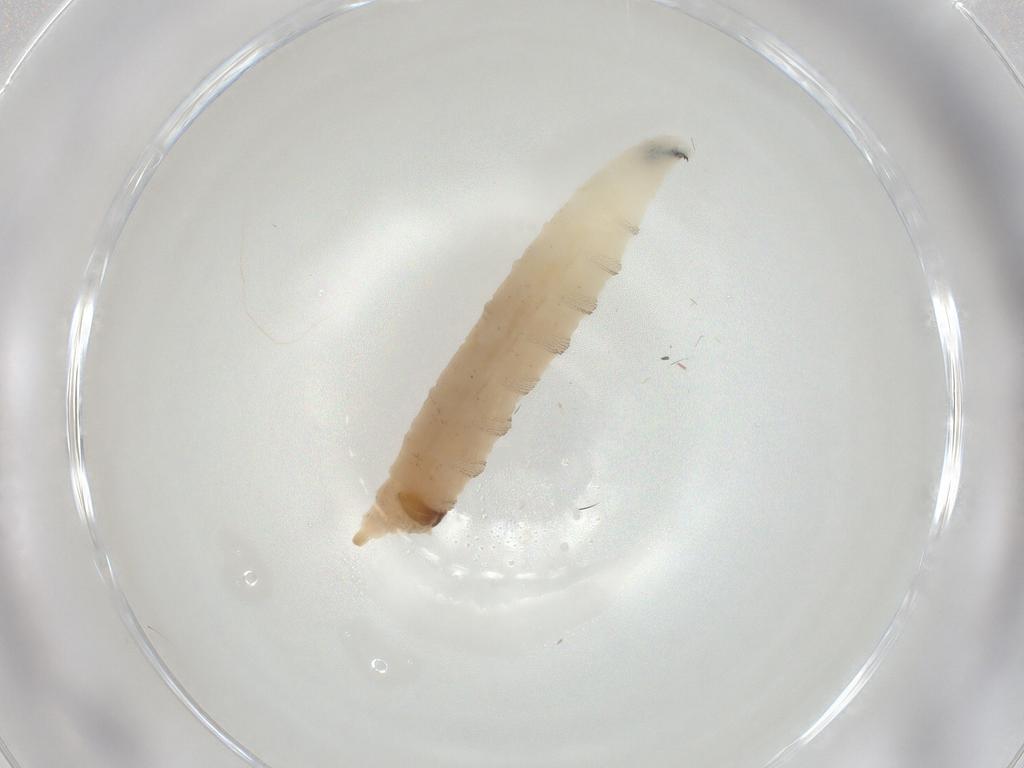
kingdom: Animalia
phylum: Arthropoda
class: Insecta
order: Diptera
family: Drosophilidae
